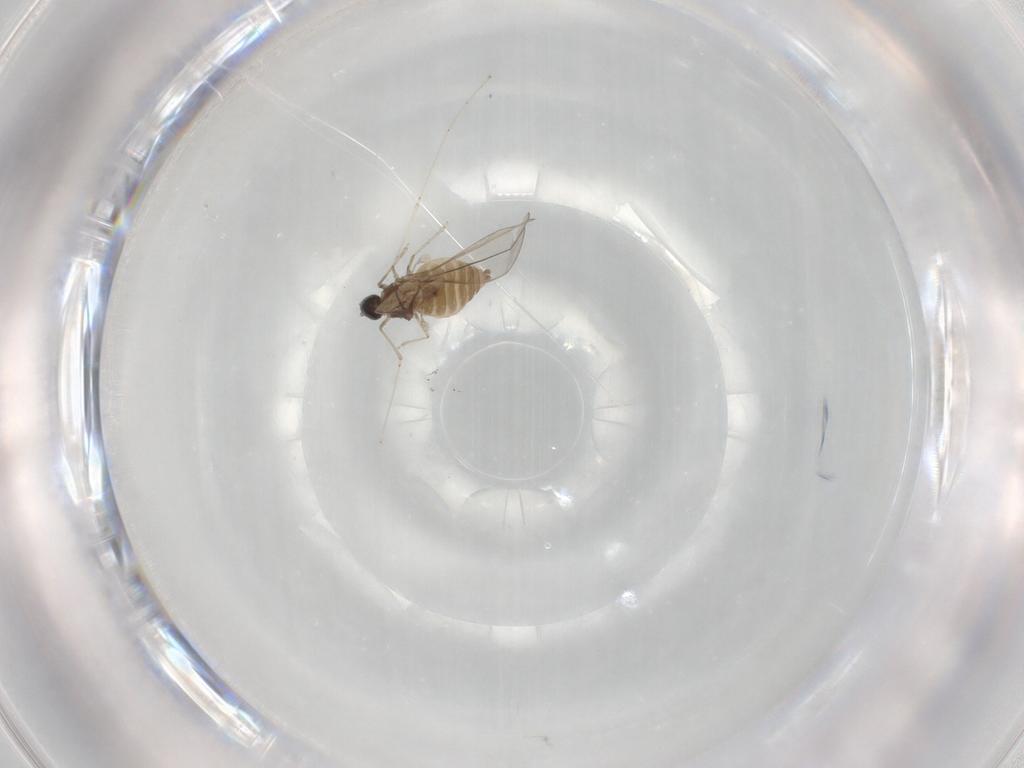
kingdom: Animalia
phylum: Arthropoda
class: Insecta
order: Diptera
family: Cecidomyiidae
